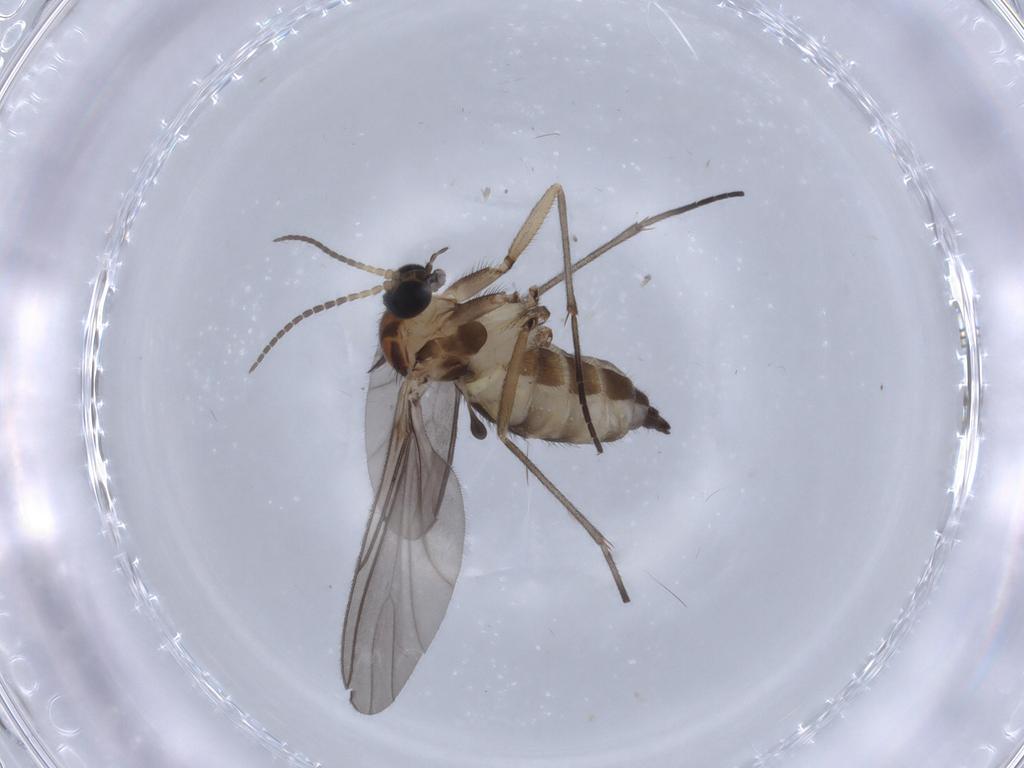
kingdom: Animalia
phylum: Arthropoda
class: Insecta
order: Diptera
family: Sciaridae
